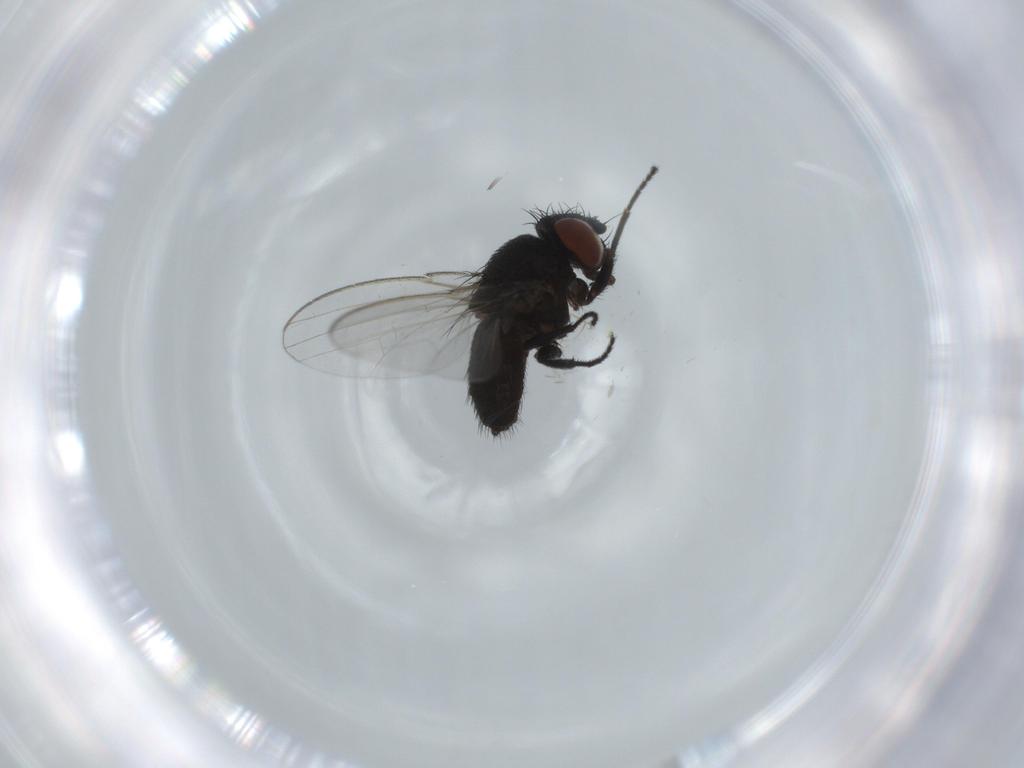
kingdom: Animalia
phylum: Arthropoda
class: Insecta
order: Diptera
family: Milichiidae
